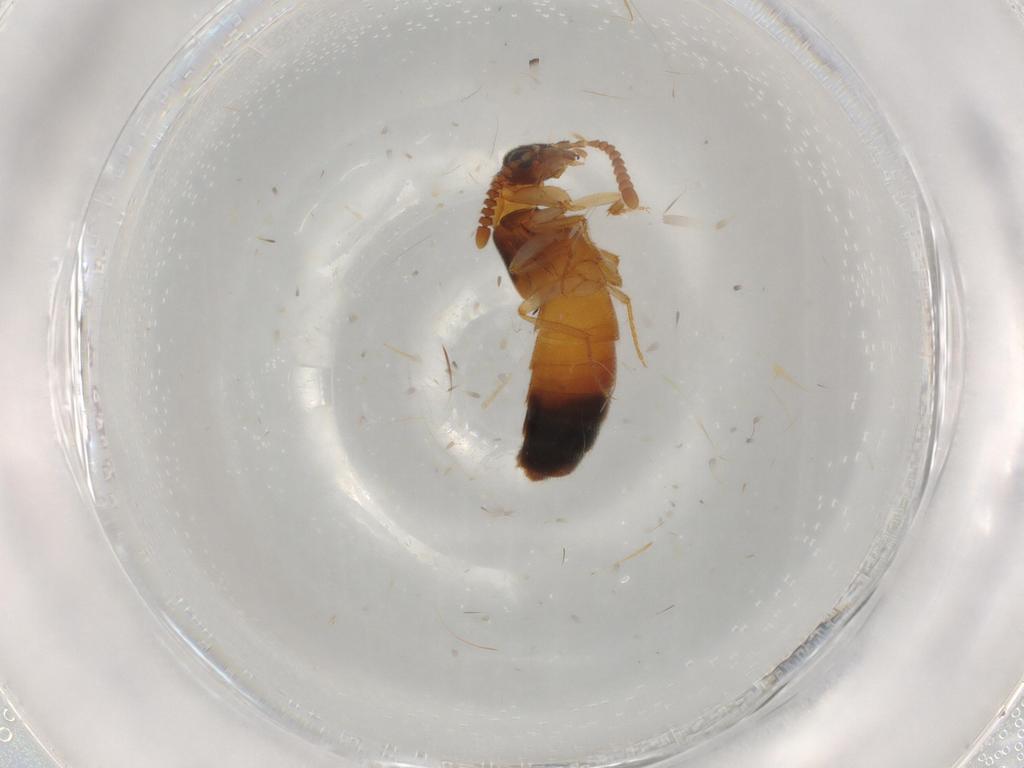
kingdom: Animalia
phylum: Arthropoda
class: Insecta
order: Coleoptera
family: Staphylinidae
